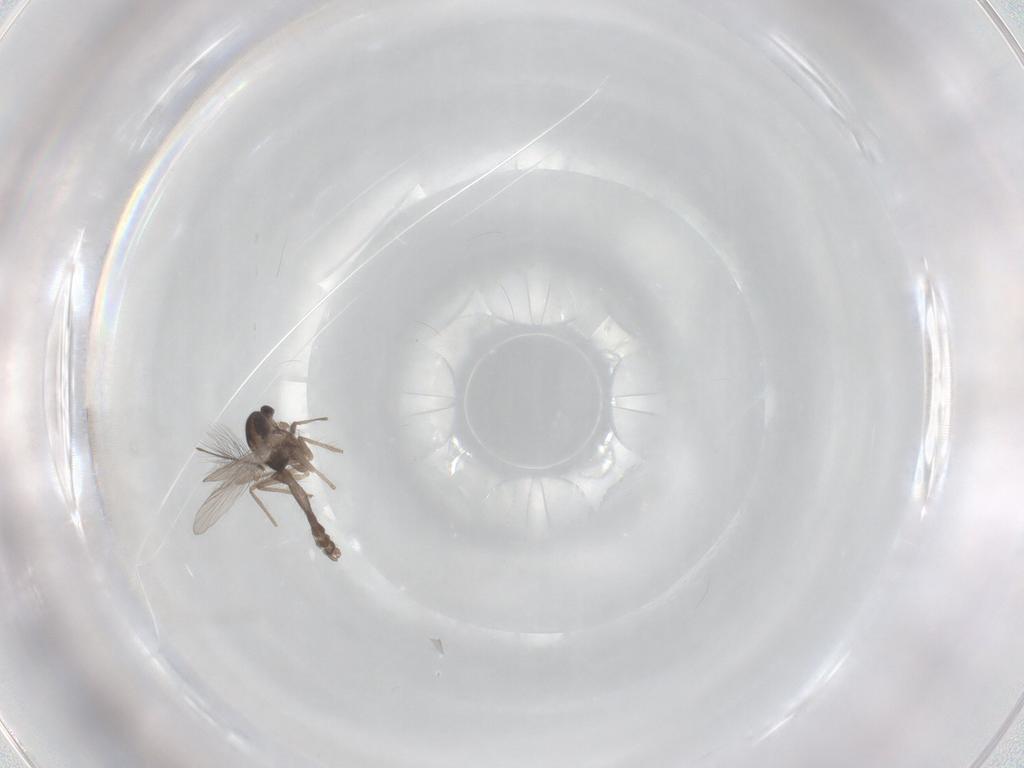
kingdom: Animalia
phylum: Arthropoda
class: Insecta
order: Diptera
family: Chironomidae
